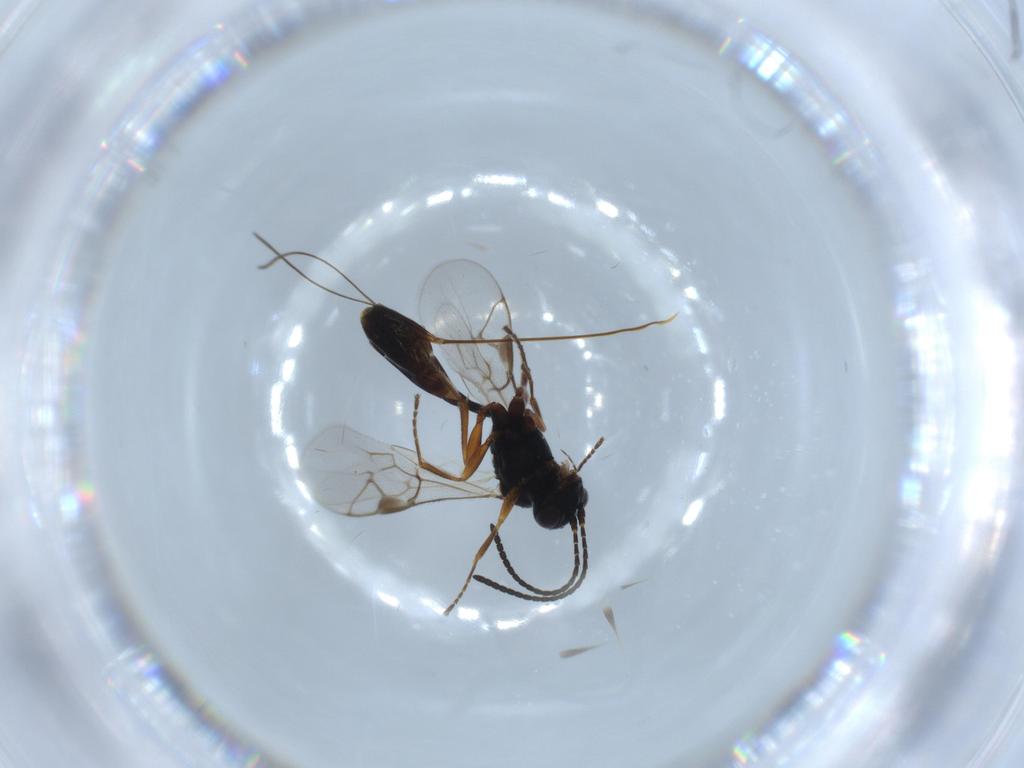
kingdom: Animalia
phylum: Arthropoda
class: Insecta
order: Hymenoptera
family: Ichneumonidae
